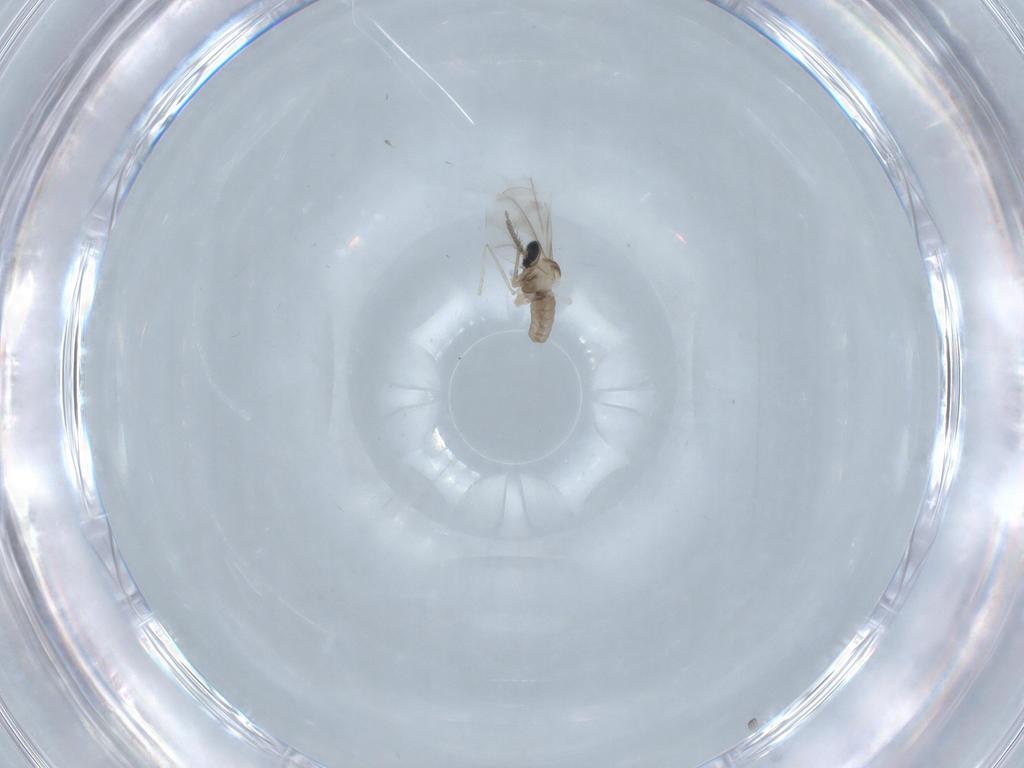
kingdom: Animalia
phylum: Arthropoda
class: Insecta
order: Diptera
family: Cecidomyiidae
